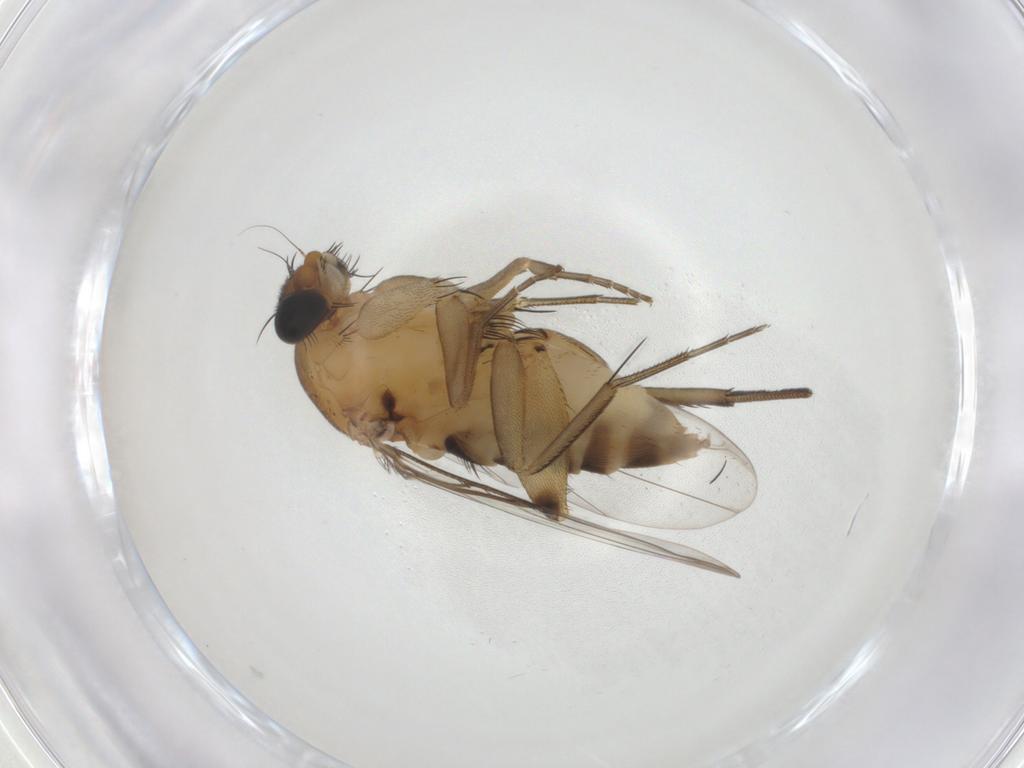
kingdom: Animalia
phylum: Arthropoda
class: Insecta
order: Diptera
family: Phoridae
